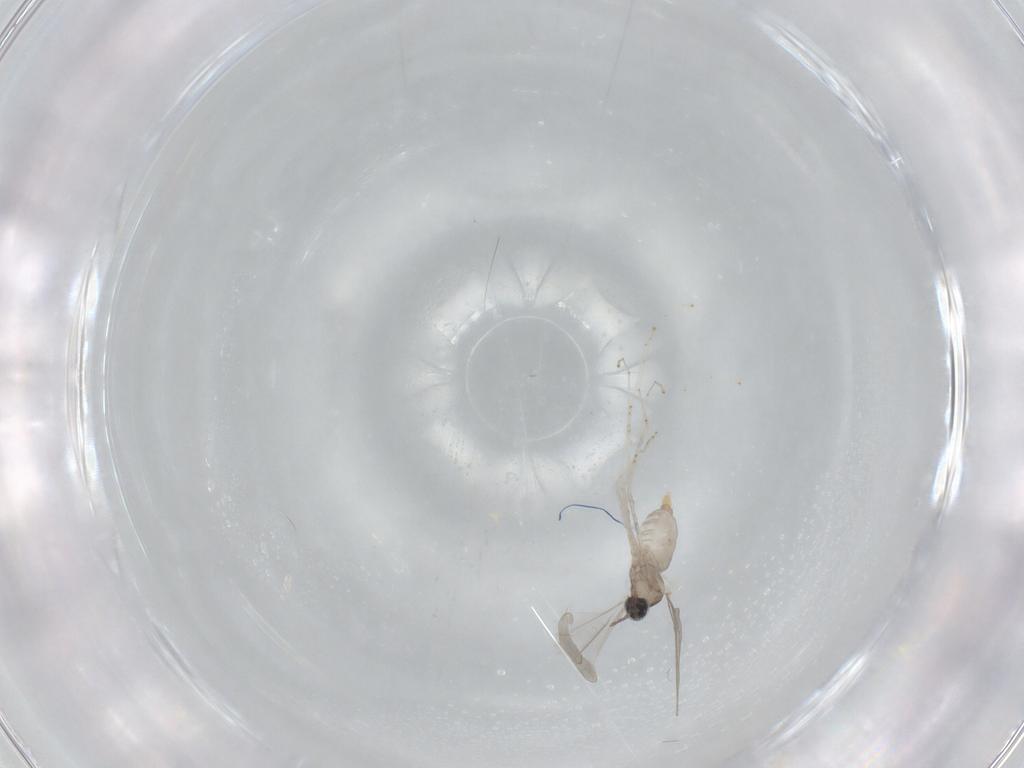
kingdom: Animalia
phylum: Arthropoda
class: Insecta
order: Diptera
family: Cecidomyiidae
